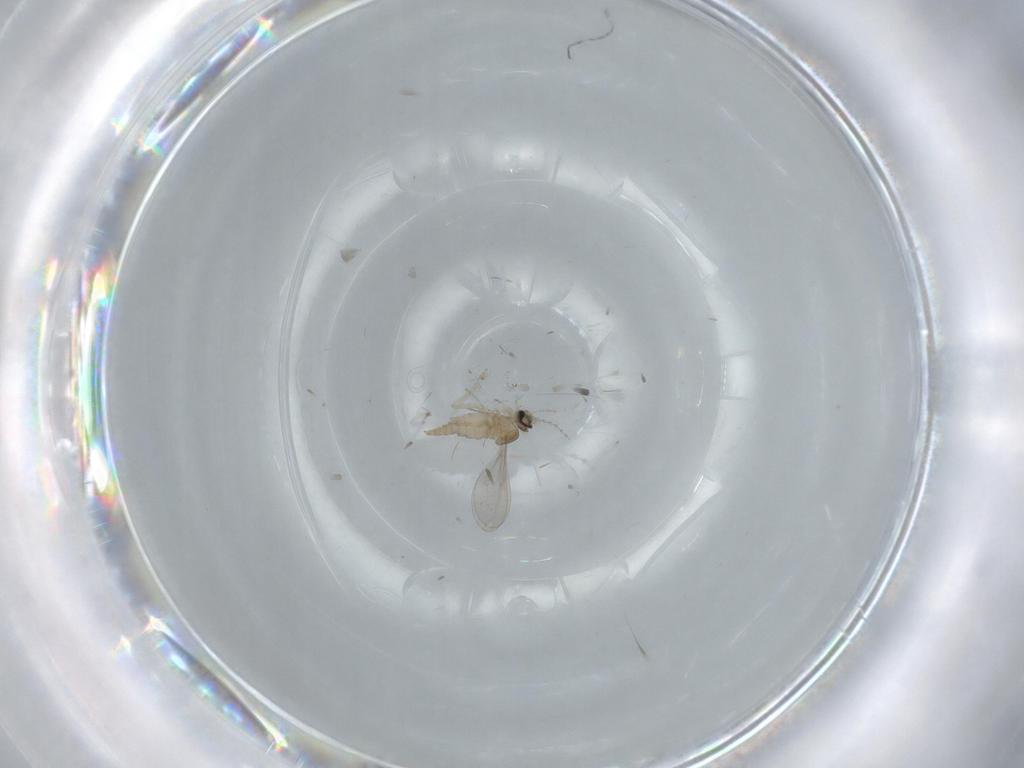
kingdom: Animalia
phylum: Arthropoda
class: Insecta
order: Diptera
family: Cecidomyiidae
